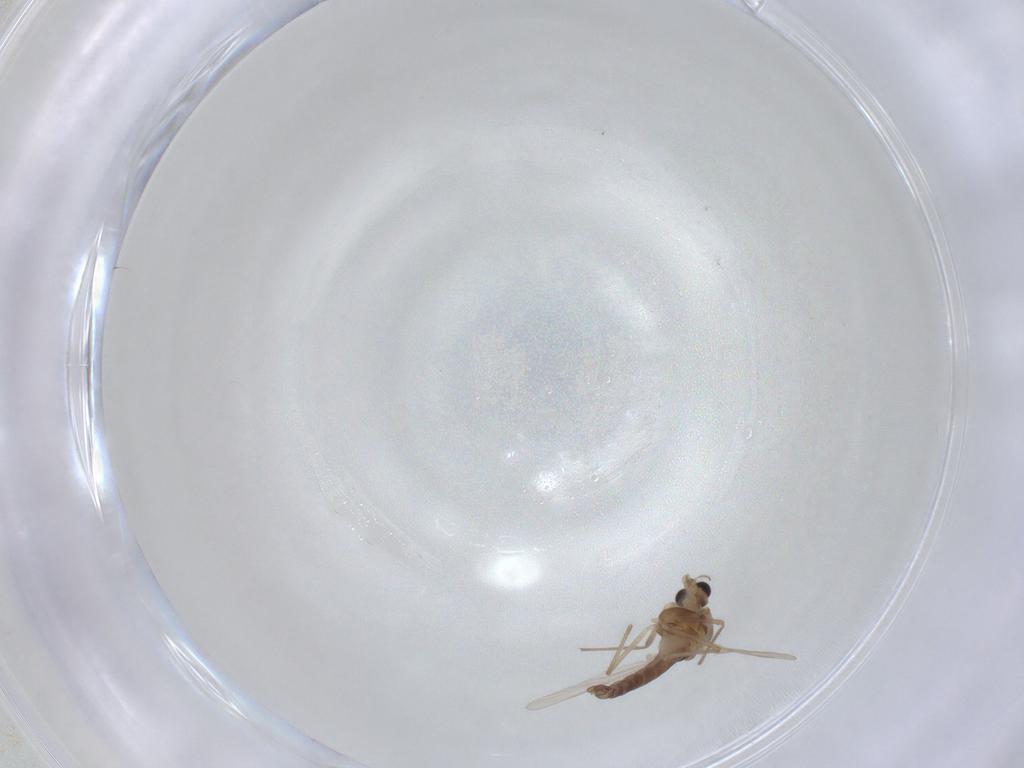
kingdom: Animalia
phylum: Arthropoda
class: Insecta
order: Diptera
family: Chironomidae
